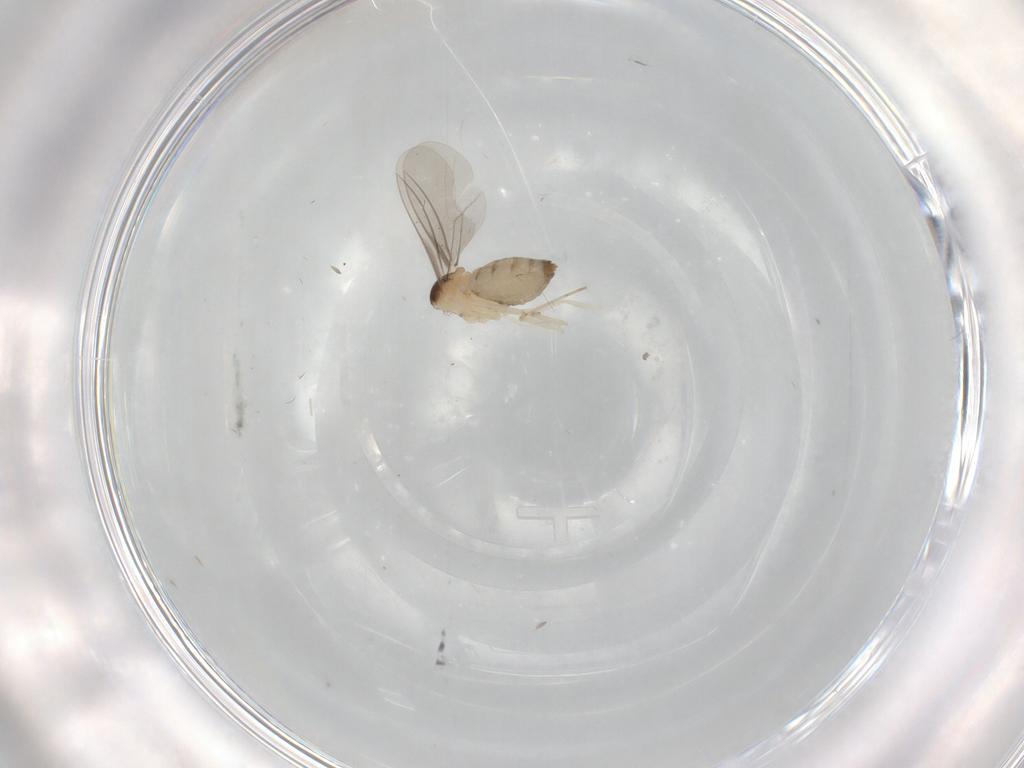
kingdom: Animalia
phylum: Arthropoda
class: Insecta
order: Diptera
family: Cecidomyiidae
